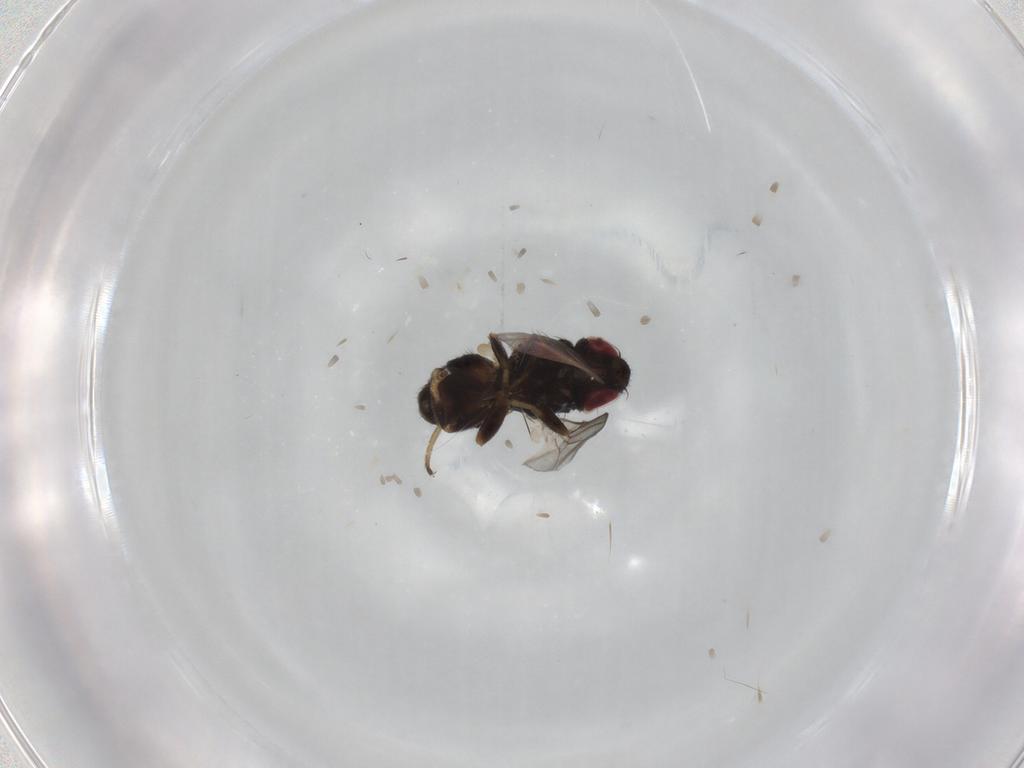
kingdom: Animalia
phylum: Arthropoda
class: Insecta
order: Diptera
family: Chloropidae
